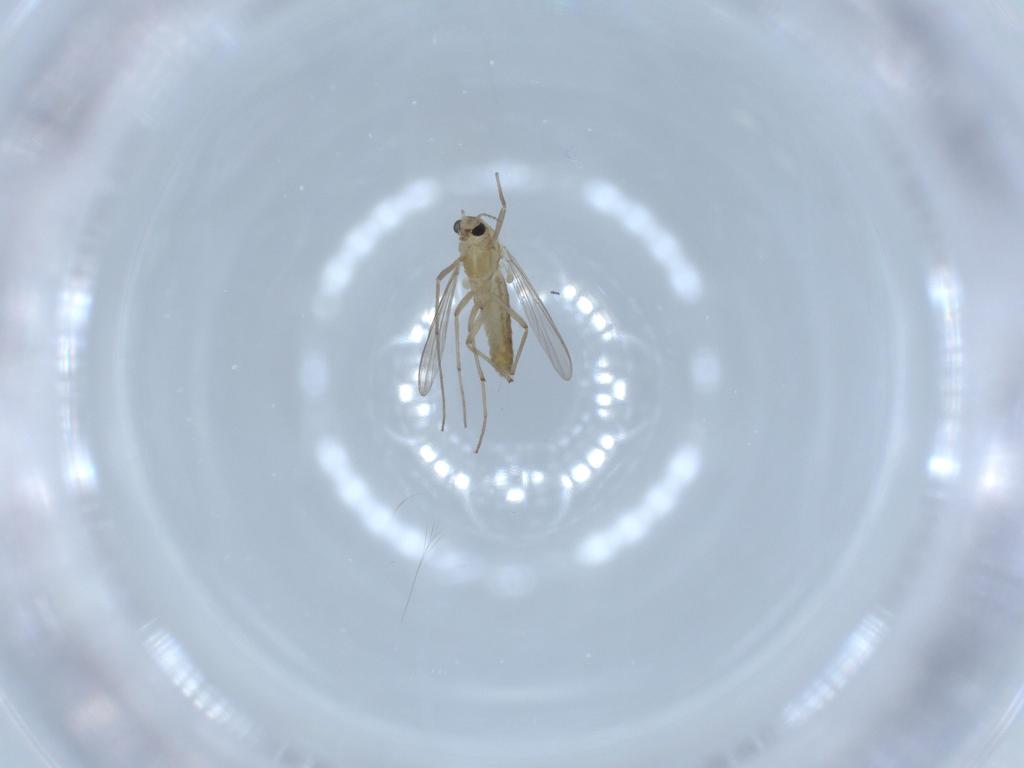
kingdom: Animalia
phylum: Arthropoda
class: Insecta
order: Diptera
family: Chironomidae
